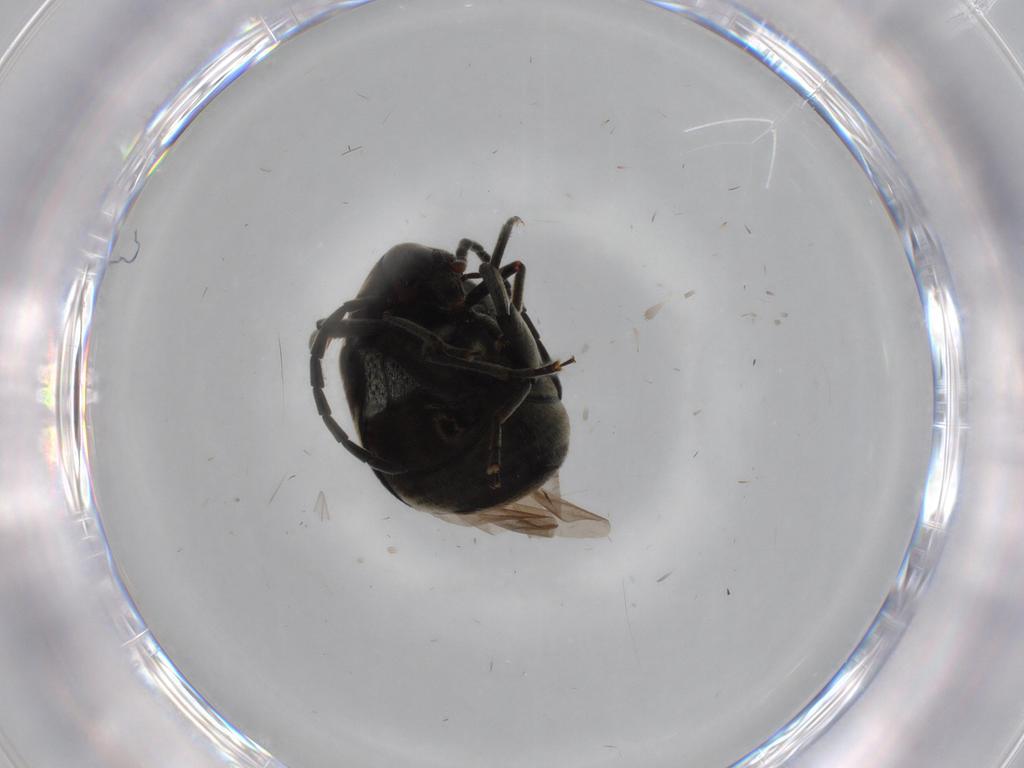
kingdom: Animalia
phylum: Arthropoda
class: Insecta
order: Coleoptera
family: Chrysomelidae
